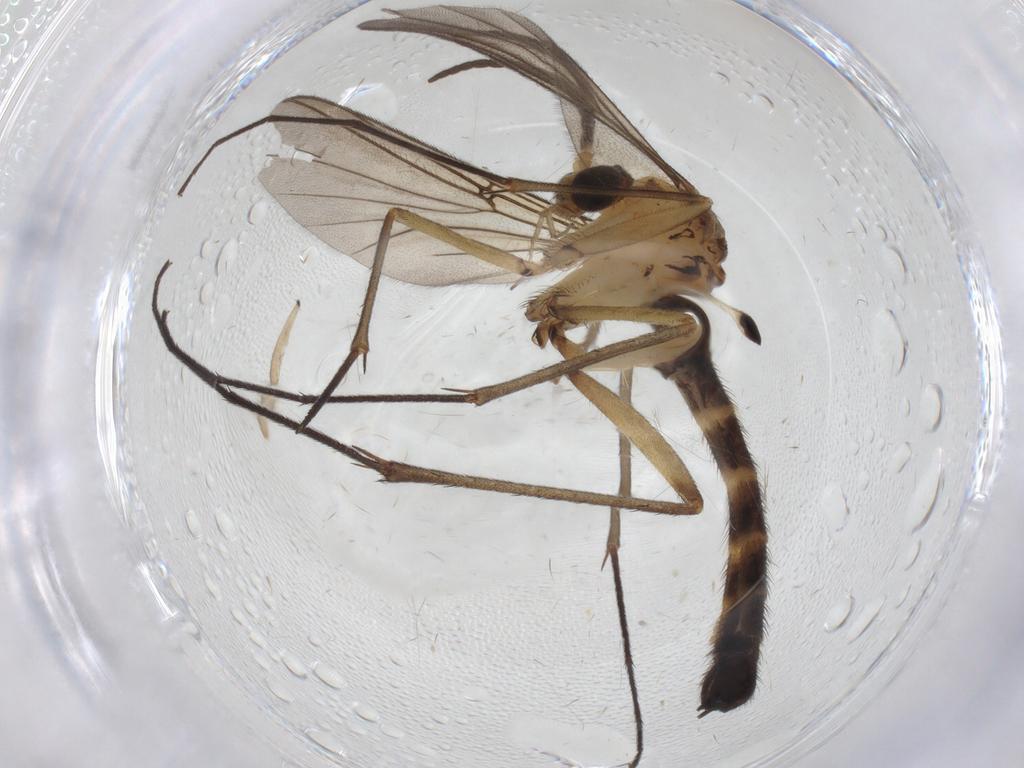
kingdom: Animalia
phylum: Arthropoda
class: Insecta
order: Diptera
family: Mycetophilidae
